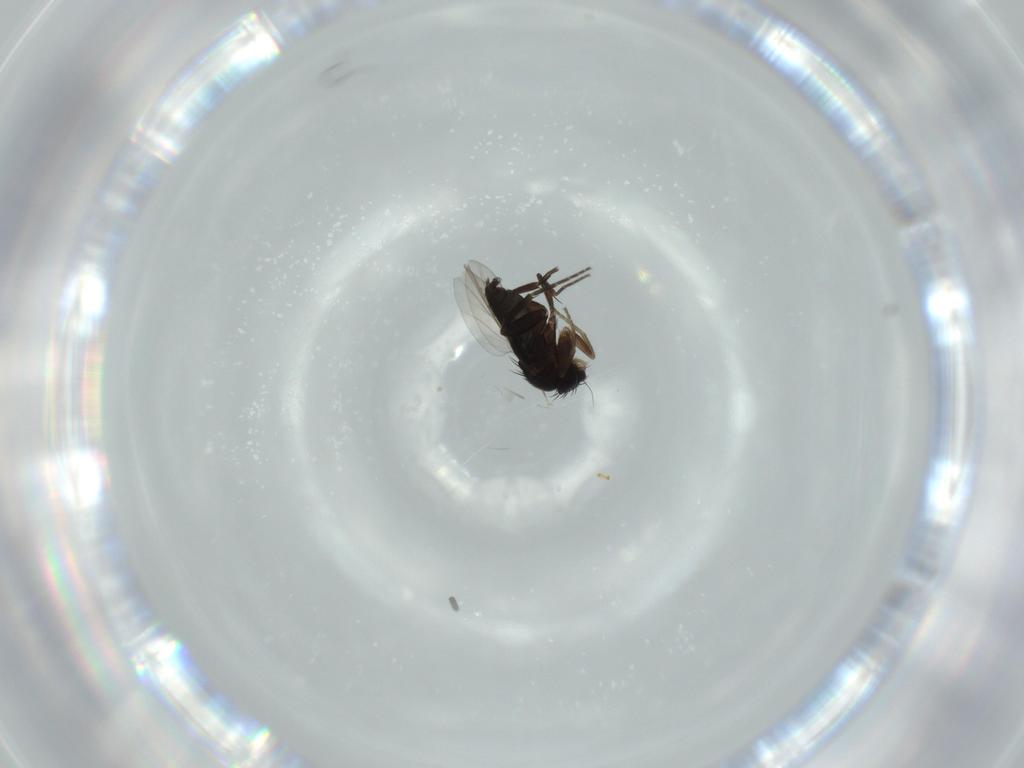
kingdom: Animalia
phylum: Arthropoda
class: Insecta
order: Diptera
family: Phoridae
